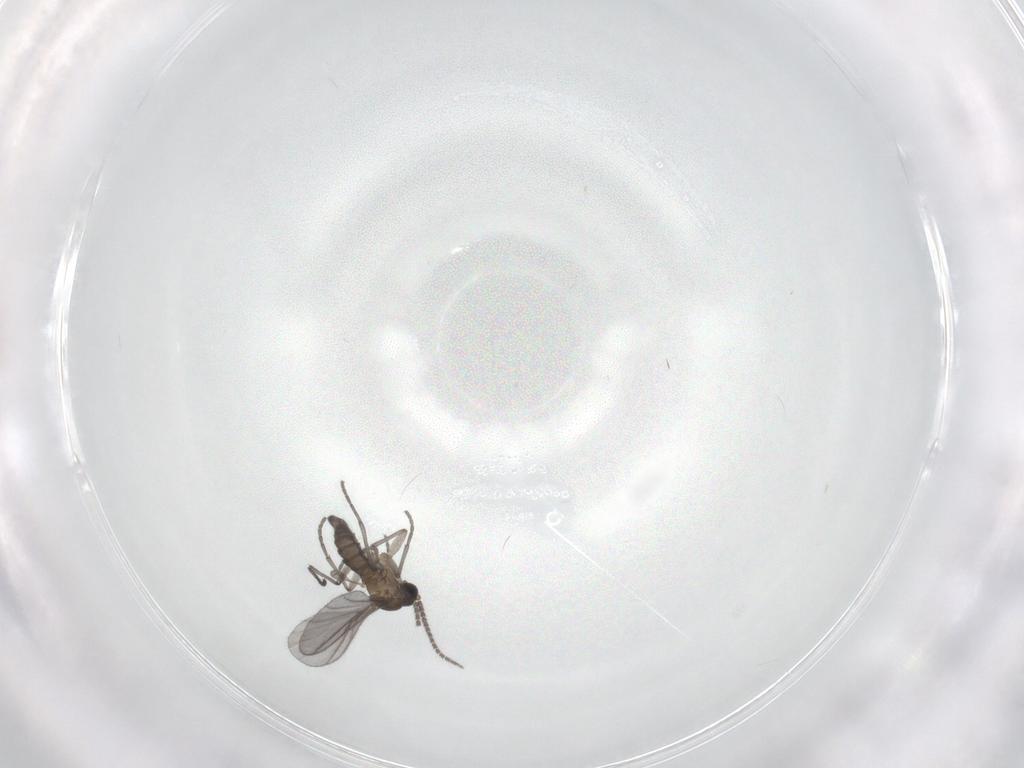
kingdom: Animalia
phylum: Arthropoda
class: Insecta
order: Diptera
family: Sciaridae
